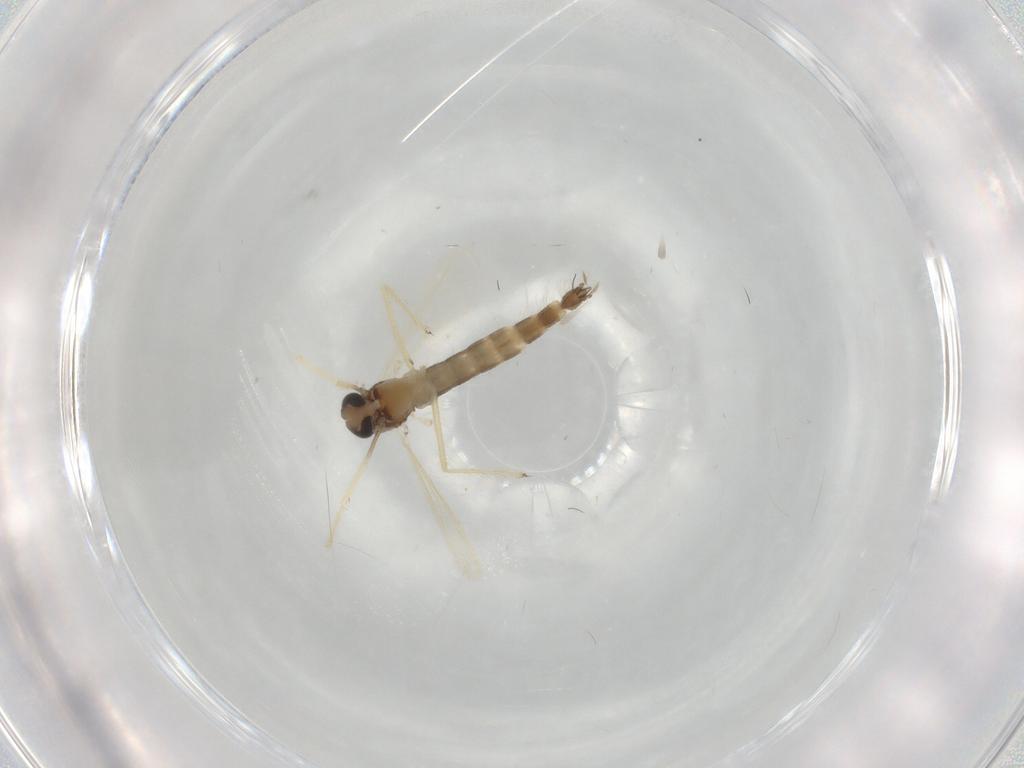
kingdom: Animalia
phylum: Arthropoda
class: Insecta
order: Diptera
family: Chironomidae
